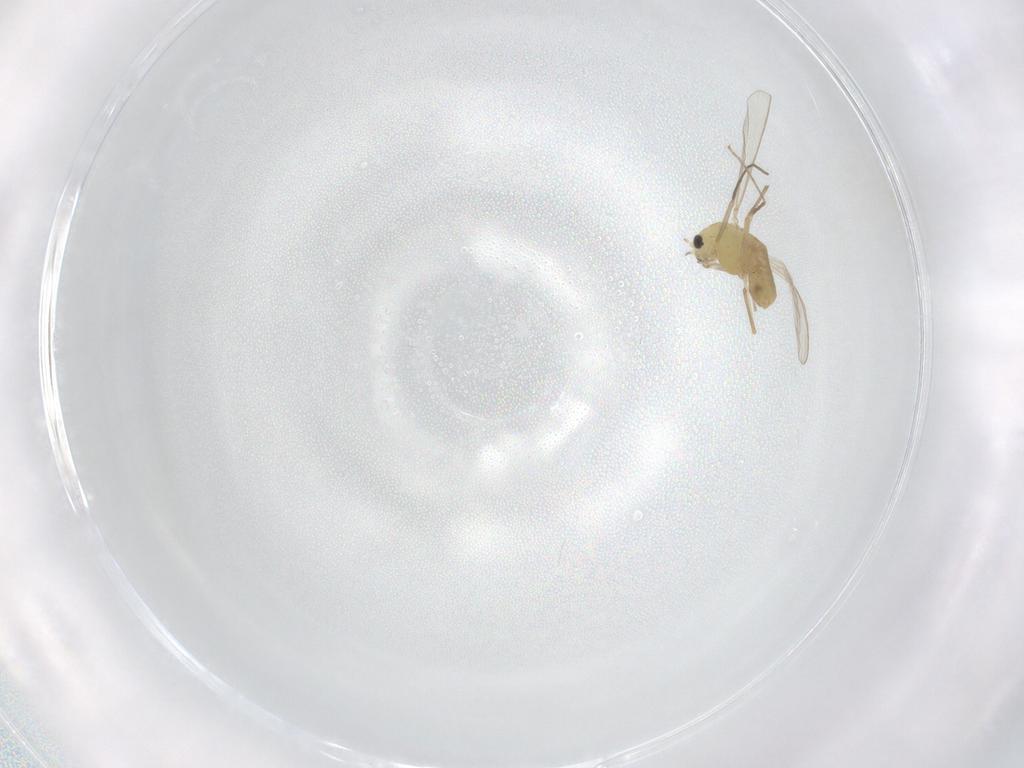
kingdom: Animalia
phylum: Arthropoda
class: Insecta
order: Diptera
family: Chironomidae
